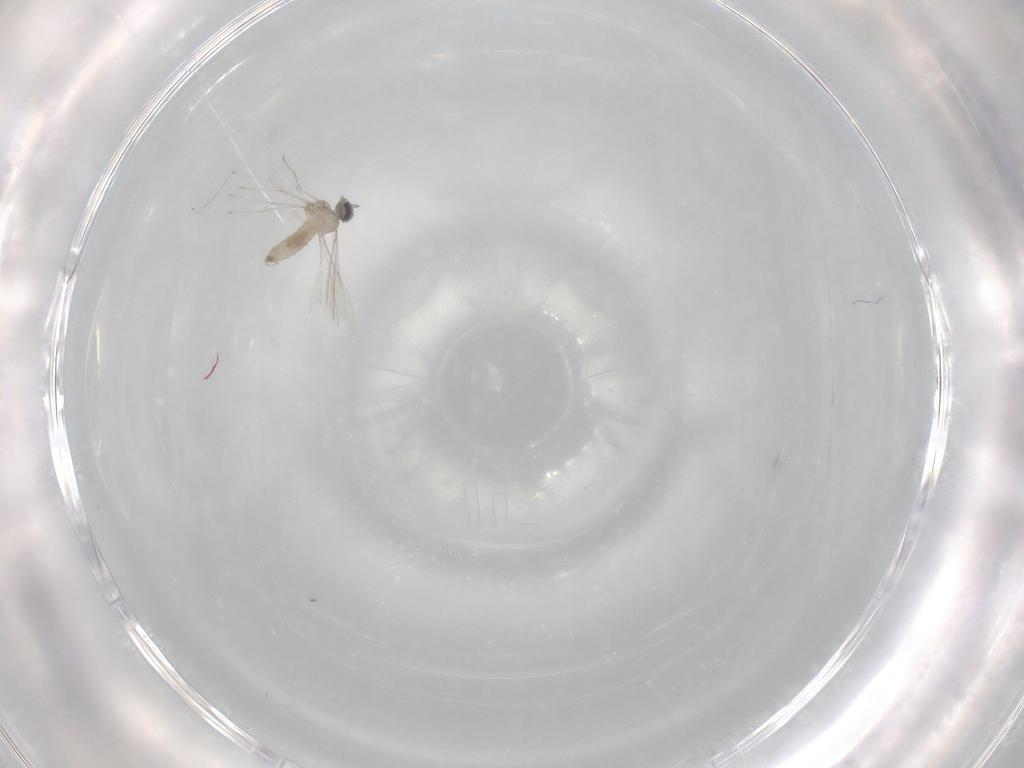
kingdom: Animalia
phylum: Arthropoda
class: Insecta
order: Diptera
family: Cecidomyiidae
